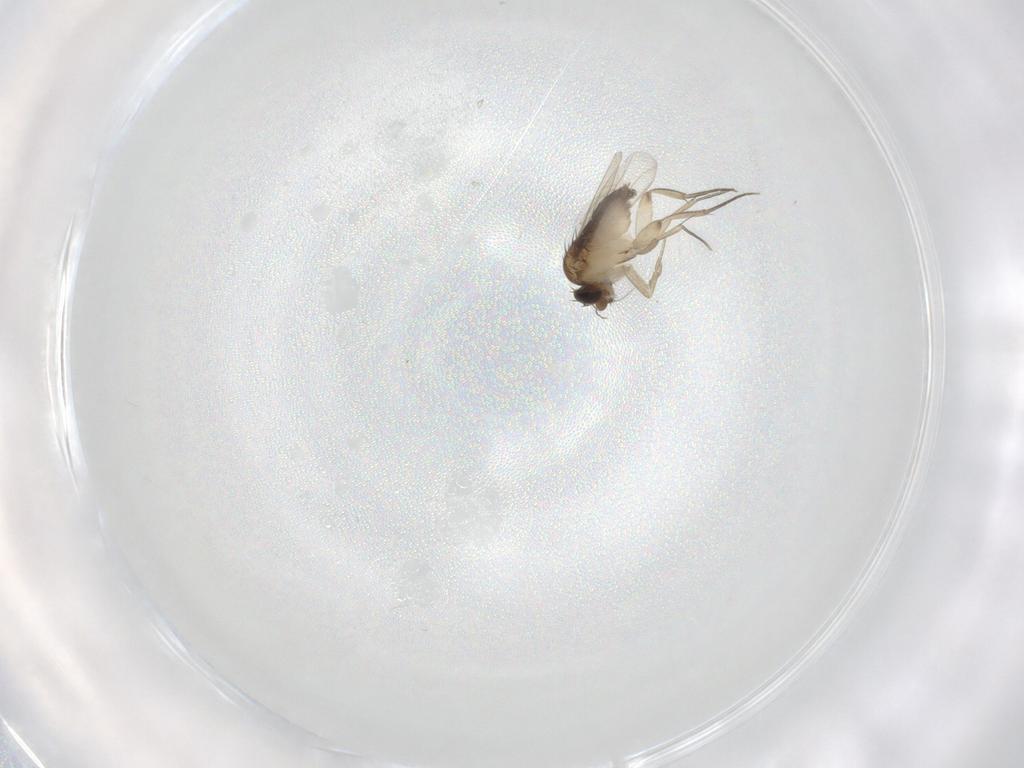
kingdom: Animalia
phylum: Arthropoda
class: Insecta
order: Diptera
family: Phoridae
